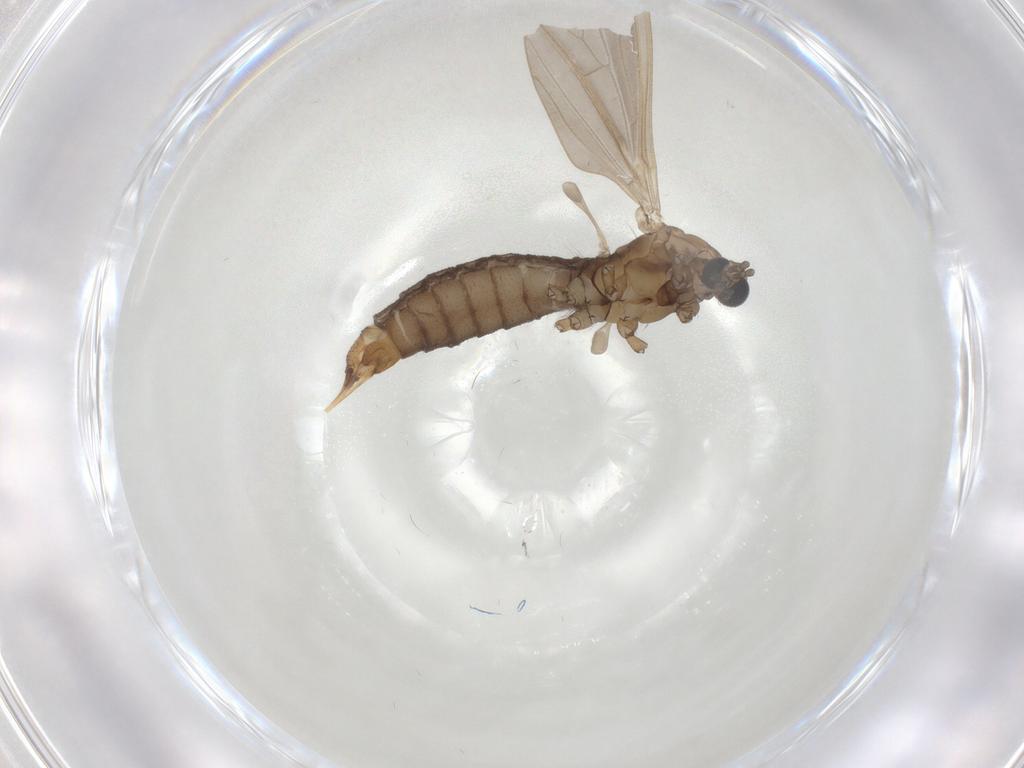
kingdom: Animalia
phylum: Arthropoda
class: Insecta
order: Diptera
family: Limoniidae
